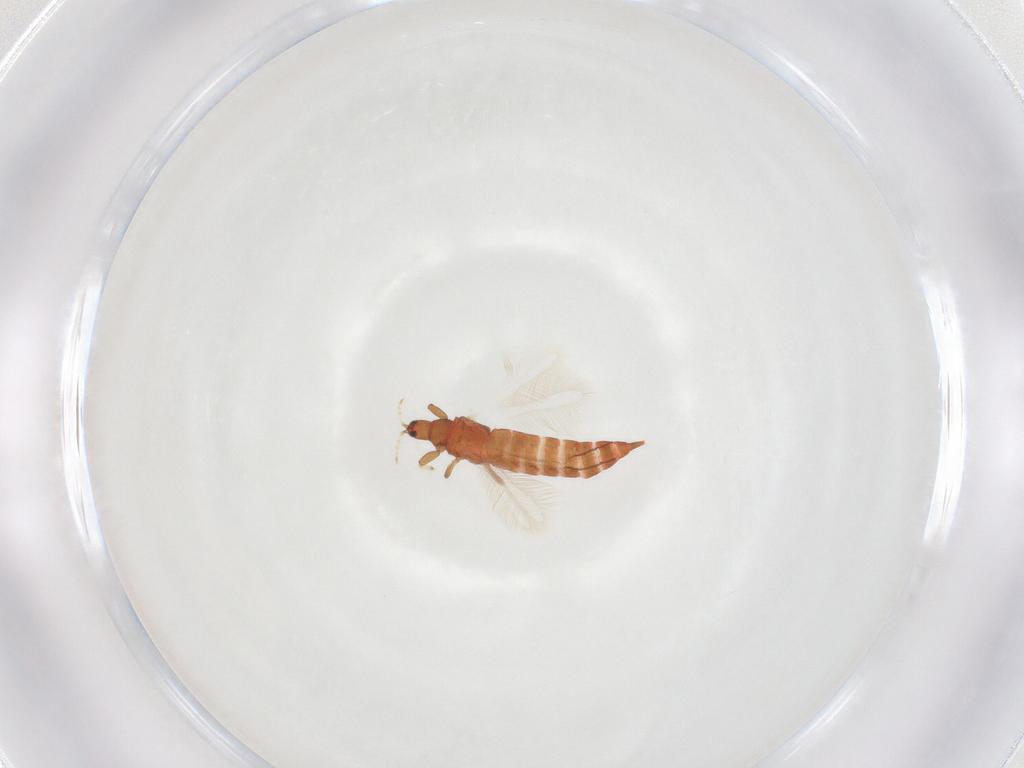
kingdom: Animalia
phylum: Arthropoda
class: Insecta
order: Thysanoptera
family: Phlaeothripidae
